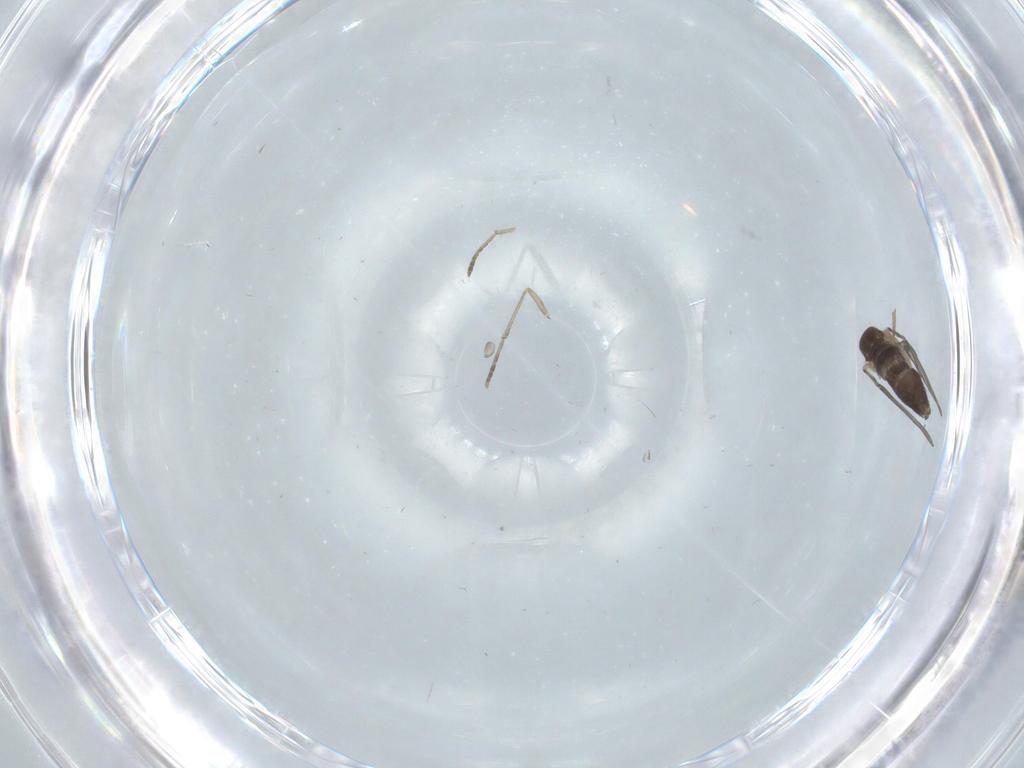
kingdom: Animalia
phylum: Arthropoda
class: Insecta
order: Diptera
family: Psychodidae
